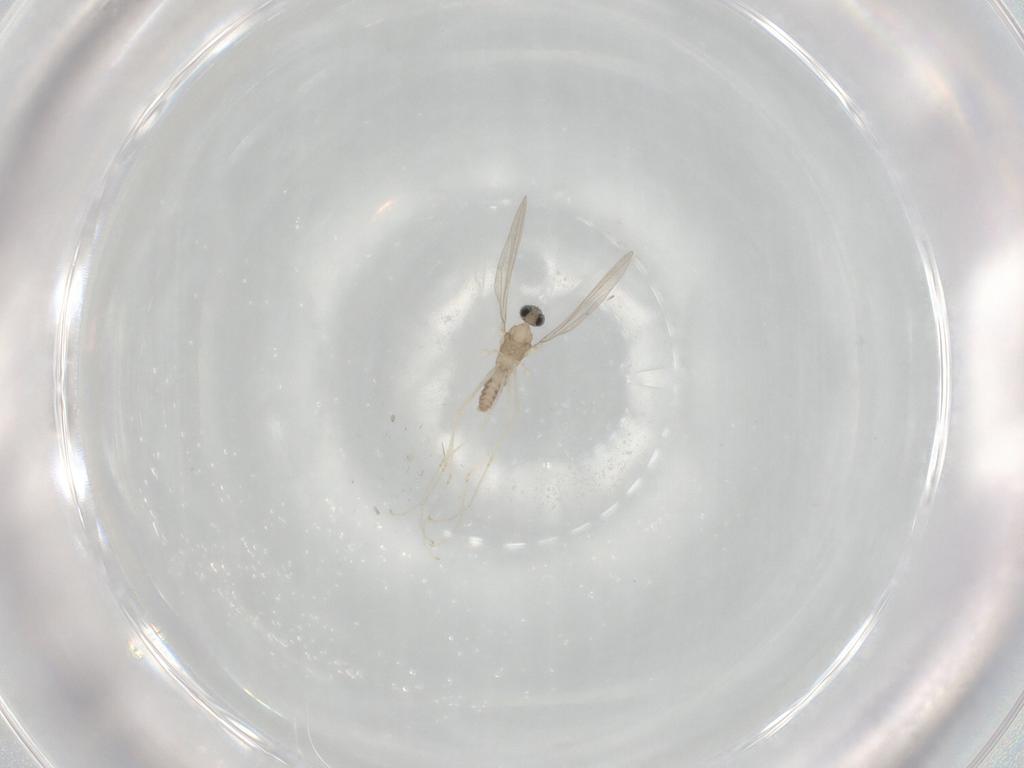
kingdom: Animalia
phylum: Arthropoda
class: Insecta
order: Diptera
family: Cecidomyiidae
